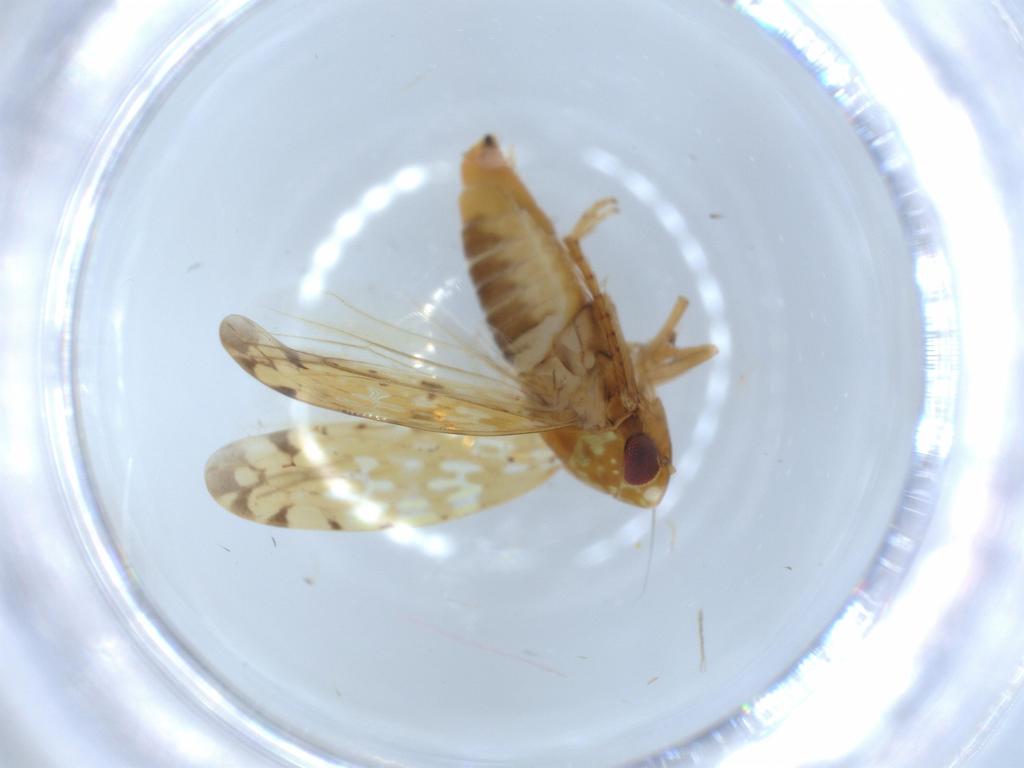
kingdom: Animalia
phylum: Arthropoda
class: Insecta
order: Hemiptera
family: Cicadellidae
